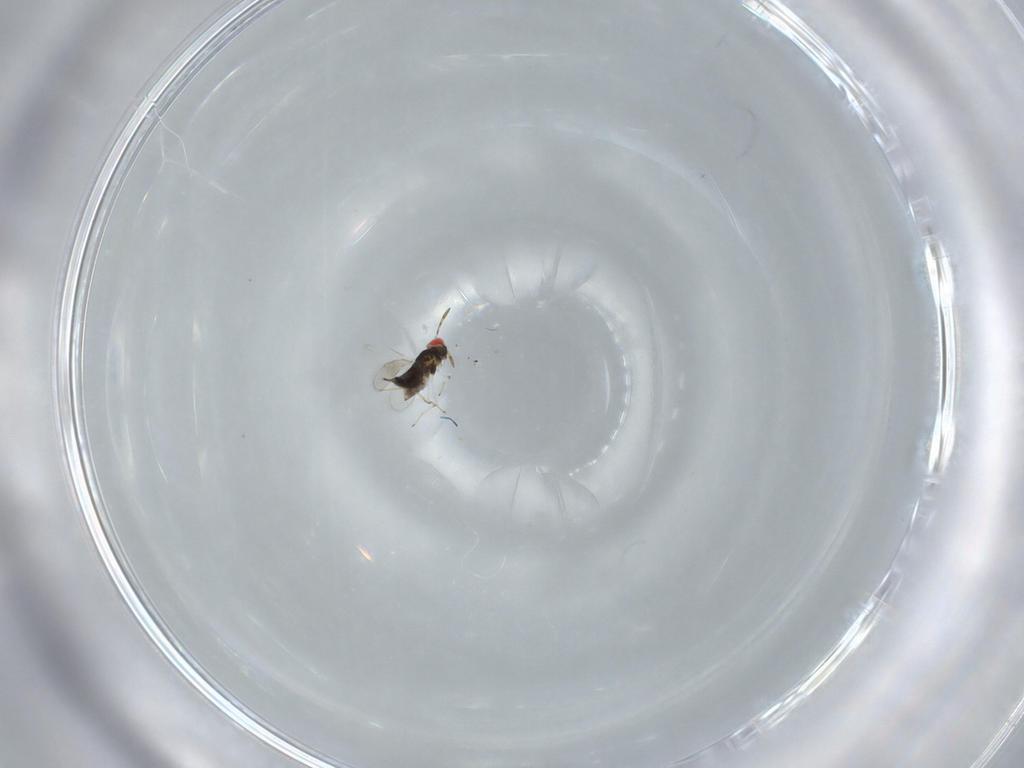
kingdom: Animalia
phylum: Arthropoda
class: Insecta
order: Hymenoptera
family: Azotidae
